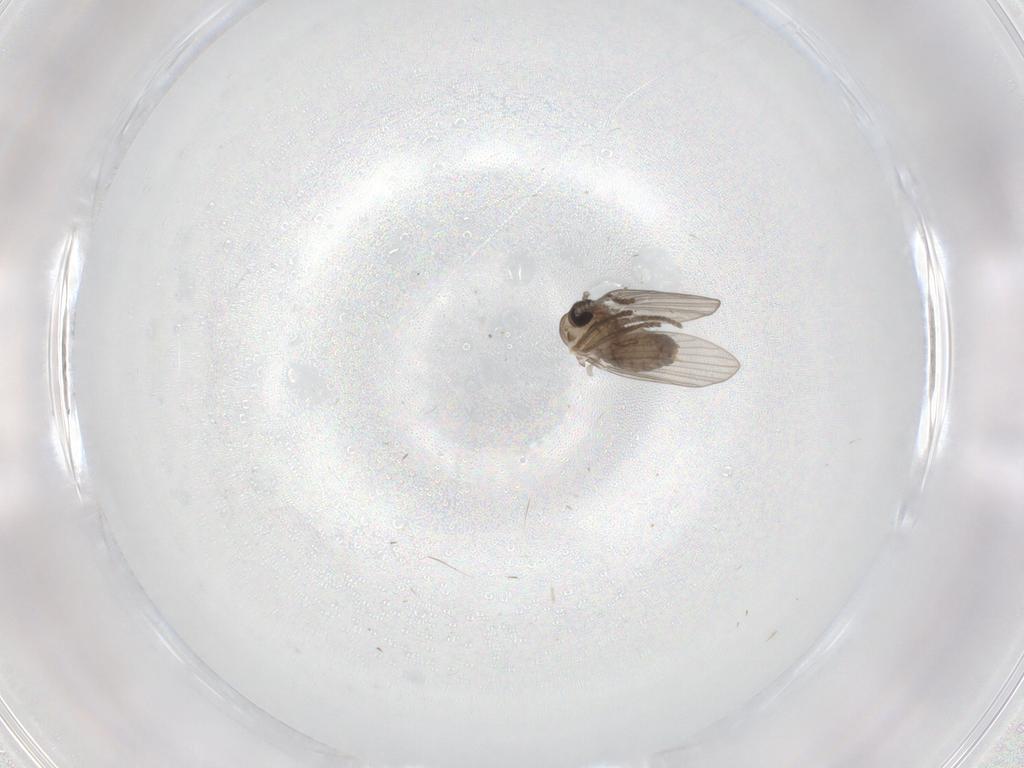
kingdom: Animalia
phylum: Arthropoda
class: Insecta
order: Diptera
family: Psychodidae
